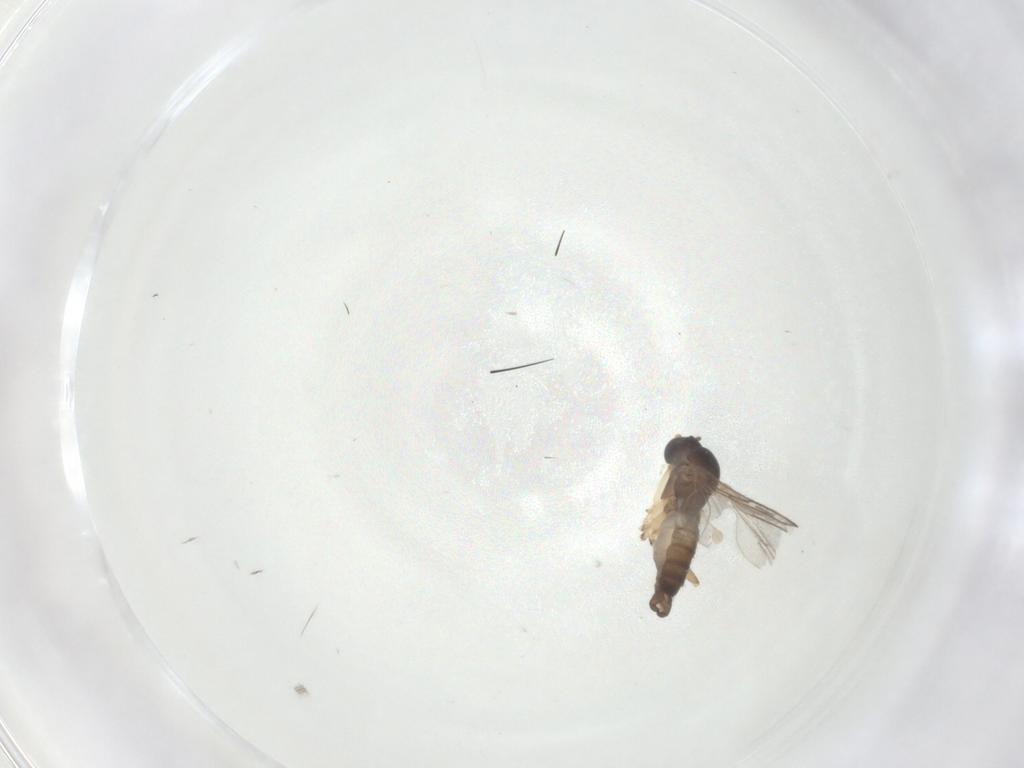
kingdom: Animalia
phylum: Arthropoda
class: Insecta
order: Diptera
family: Sciaridae
